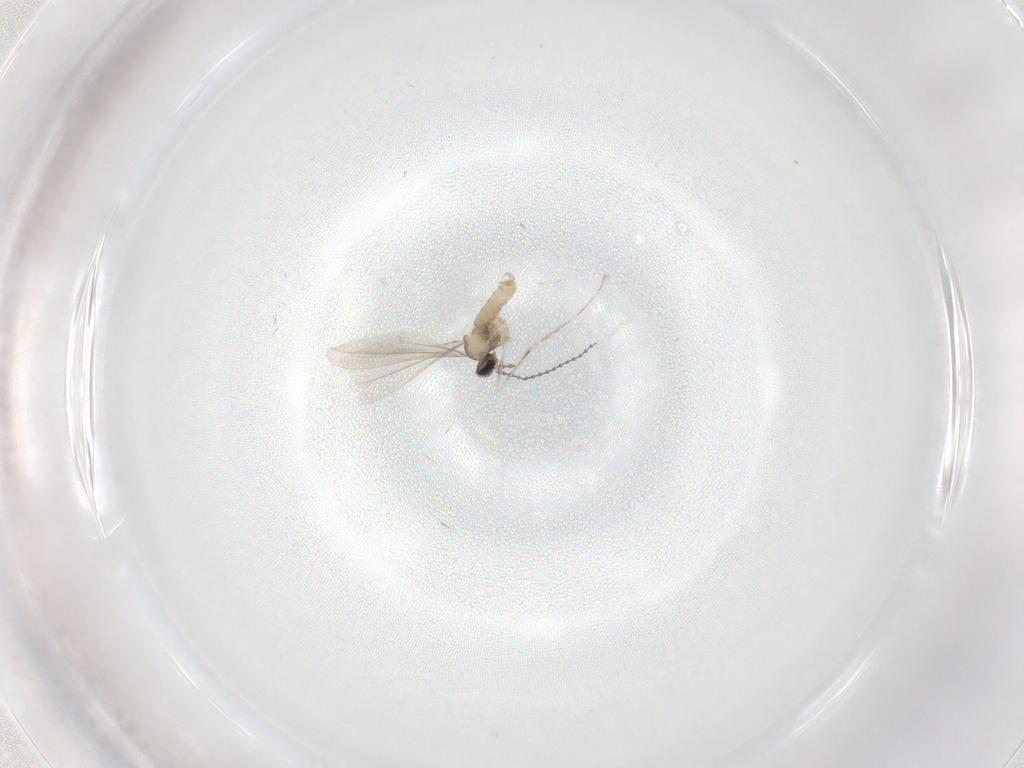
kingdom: Animalia
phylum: Arthropoda
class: Insecta
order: Diptera
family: Cecidomyiidae
